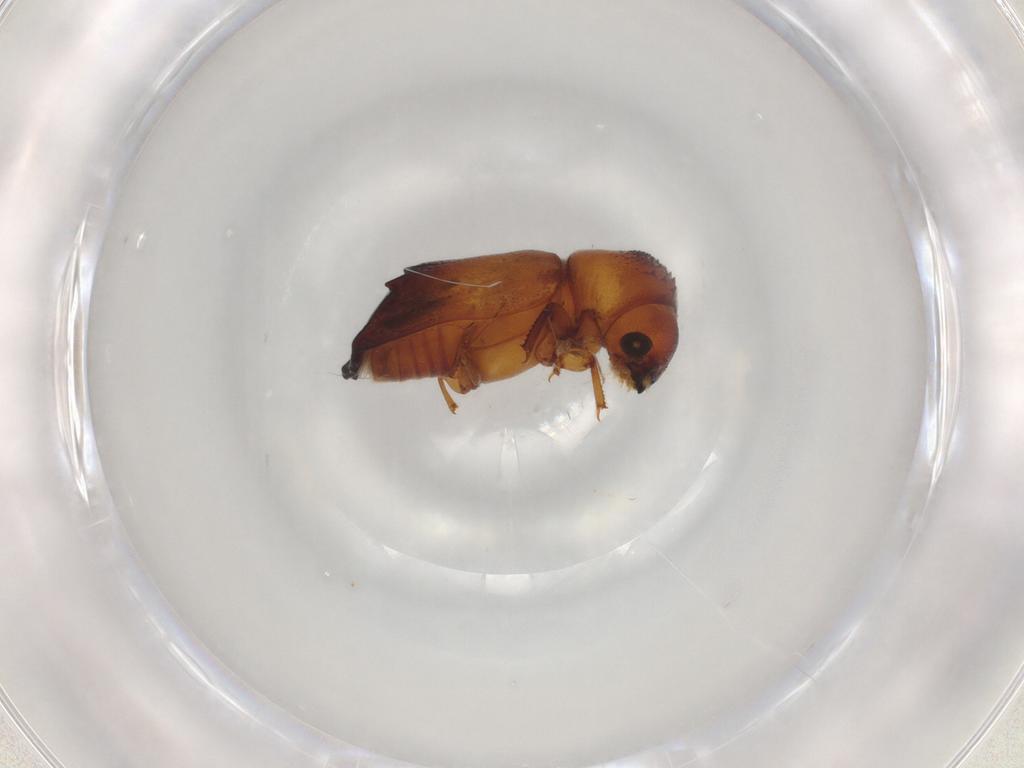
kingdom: Animalia
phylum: Arthropoda
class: Insecta
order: Coleoptera
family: Bostrichidae
